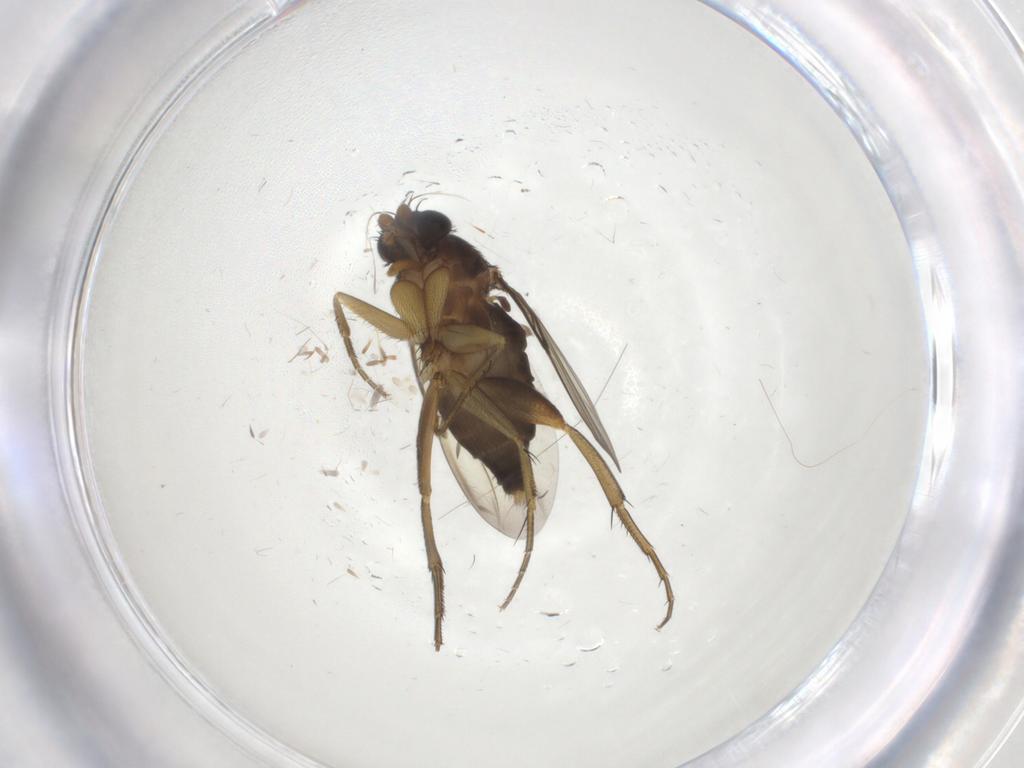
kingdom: Animalia
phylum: Arthropoda
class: Insecta
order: Diptera
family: Phoridae
